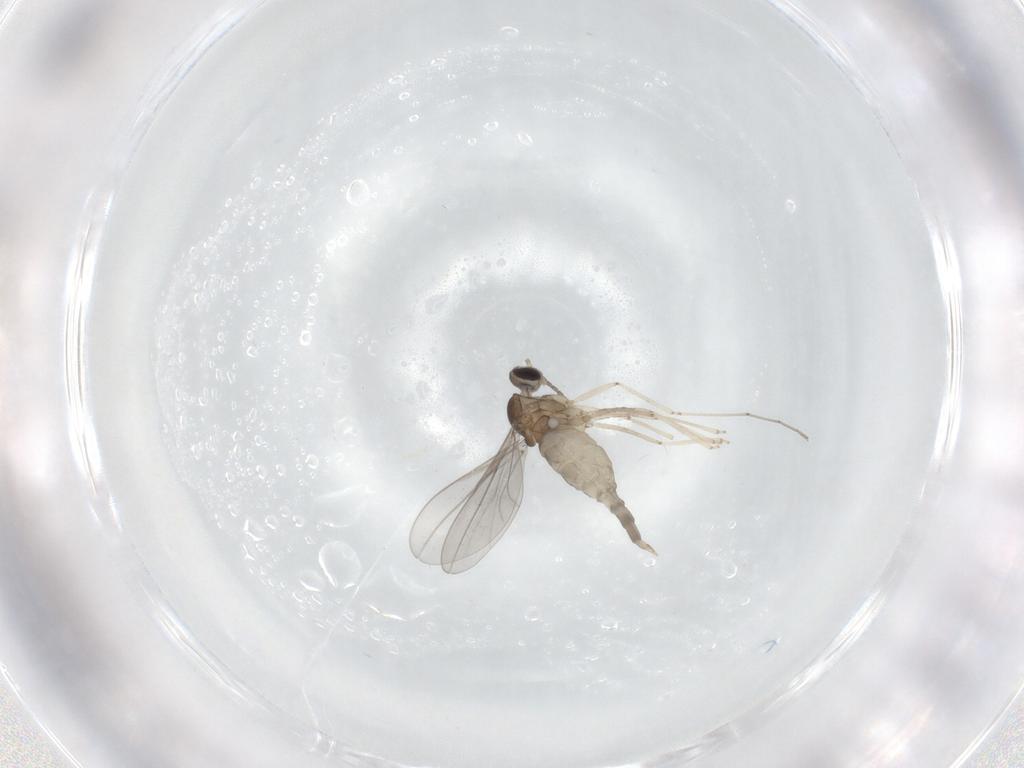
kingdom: Animalia
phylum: Arthropoda
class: Insecta
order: Diptera
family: Cecidomyiidae
